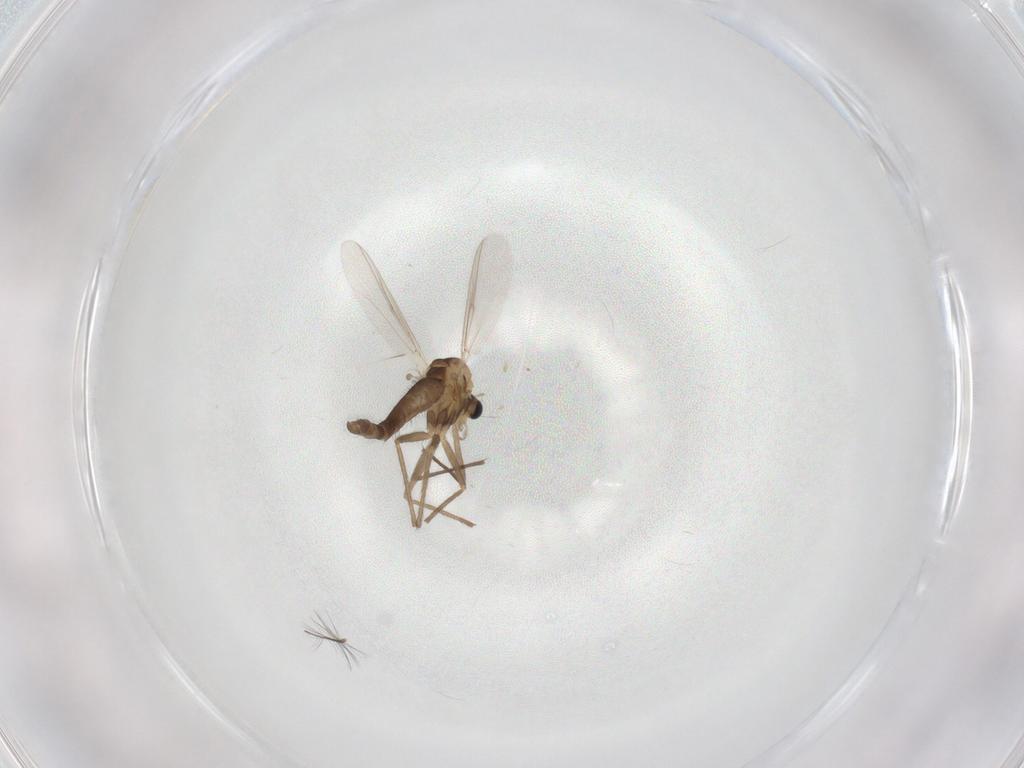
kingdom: Animalia
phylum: Arthropoda
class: Insecta
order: Diptera
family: Chironomidae
